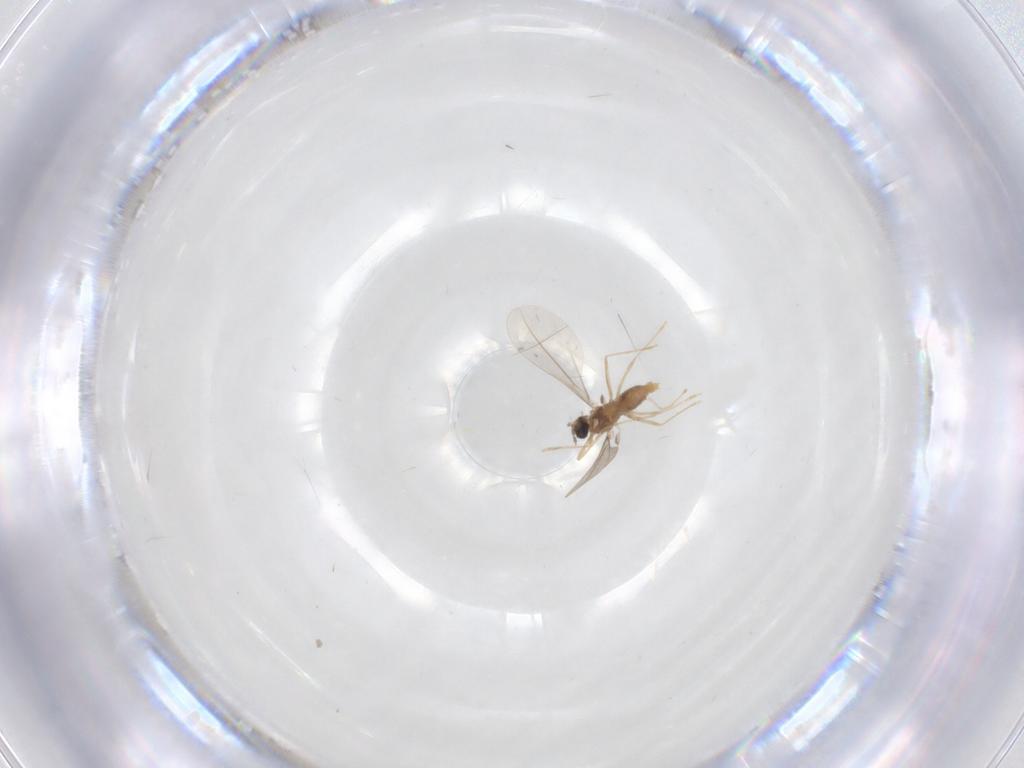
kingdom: Animalia
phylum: Arthropoda
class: Insecta
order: Diptera
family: Cecidomyiidae
